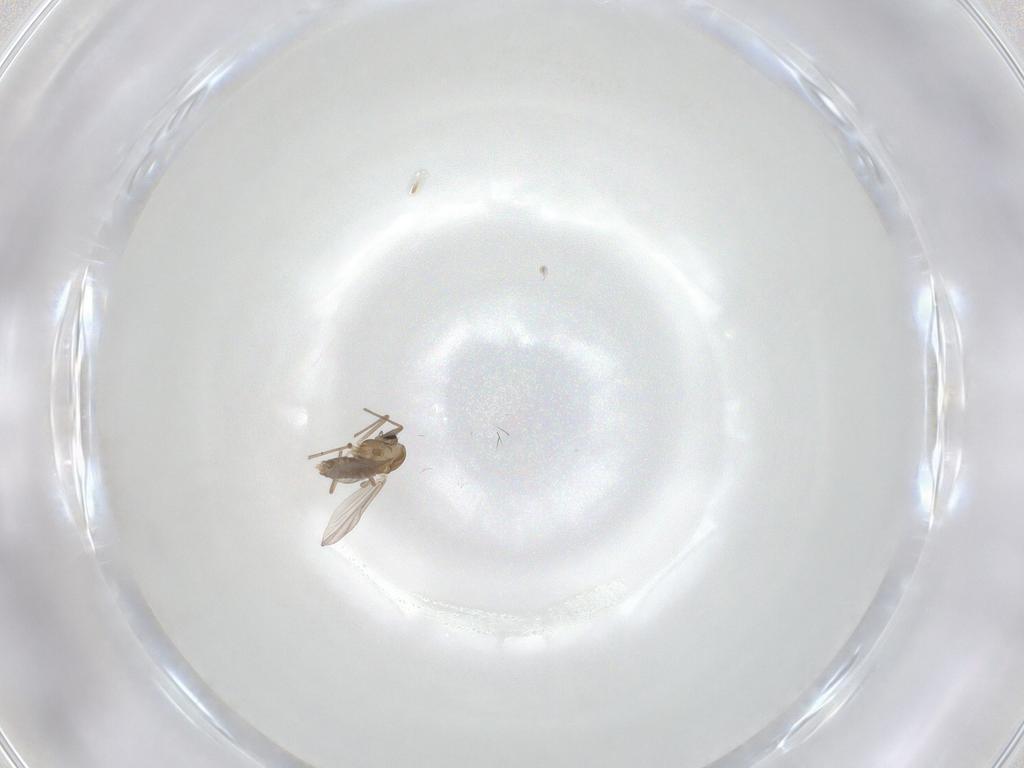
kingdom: Animalia
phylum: Arthropoda
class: Insecta
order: Diptera
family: Chironomidae
